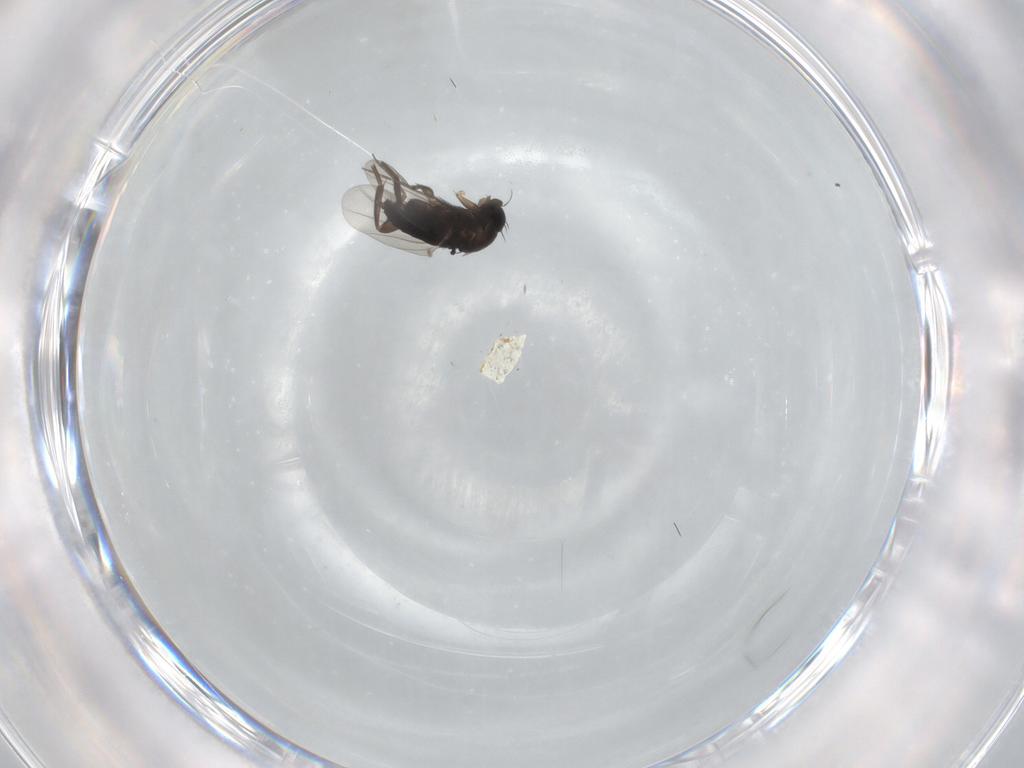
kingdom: Animalia
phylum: Arthropoda
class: Insecta
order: Diptera
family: Phoridae
